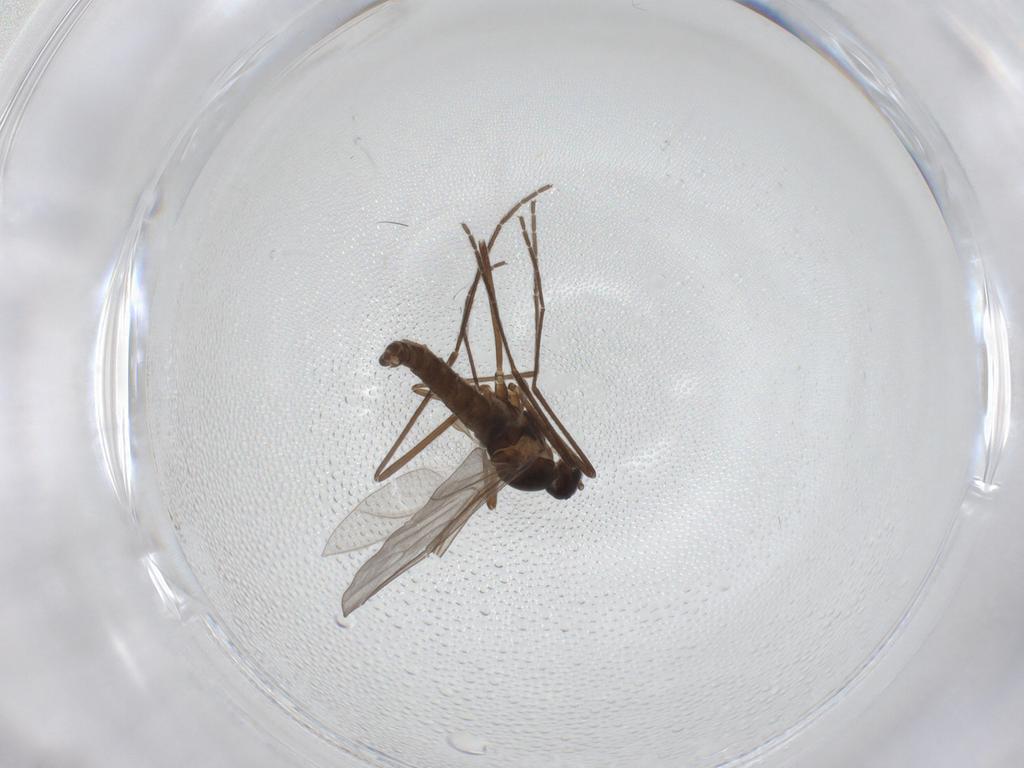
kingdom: Animalia
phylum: Arthropoda
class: Insecta
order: Diptera
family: Cecidomyiidae
